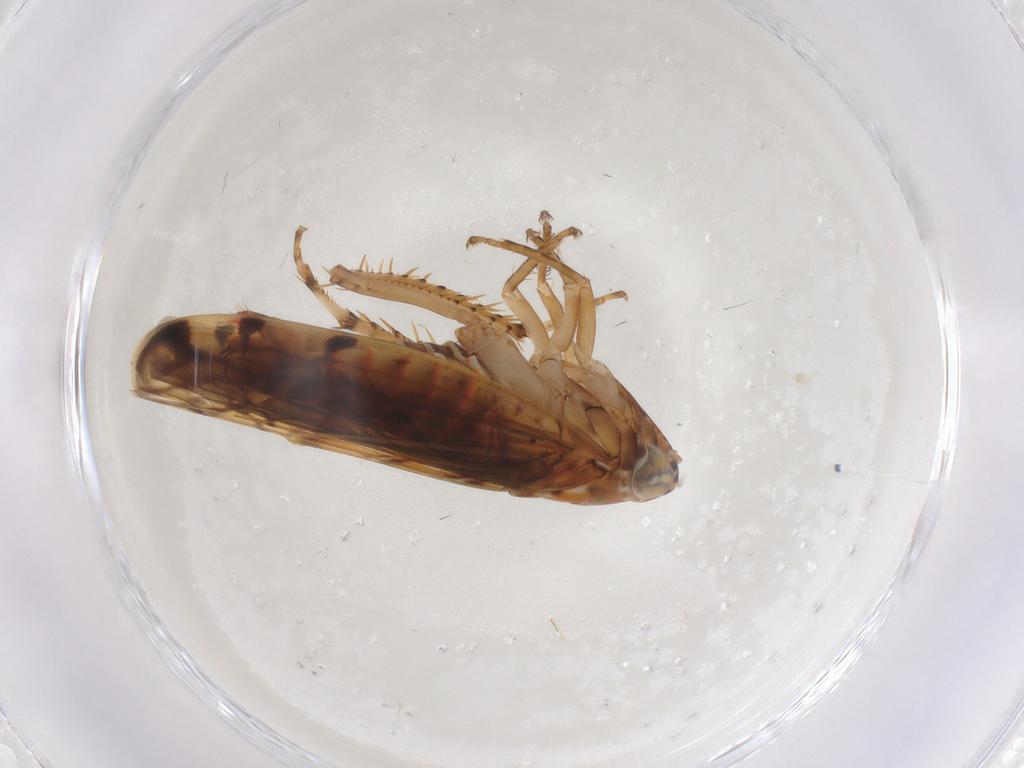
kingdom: Animalia
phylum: Arthropoda
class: Insecta
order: Hemiptera
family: Cicadellidae
